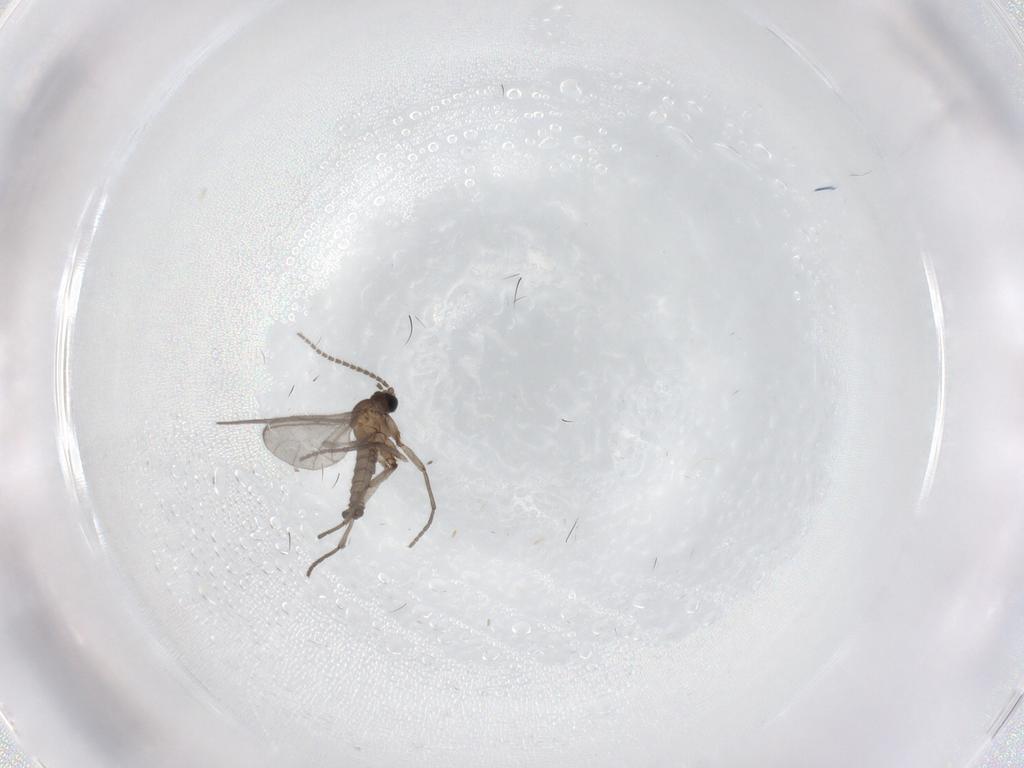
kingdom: Animalia
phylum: Arthropoda
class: Insecta
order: Diptera
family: Sciaridae
